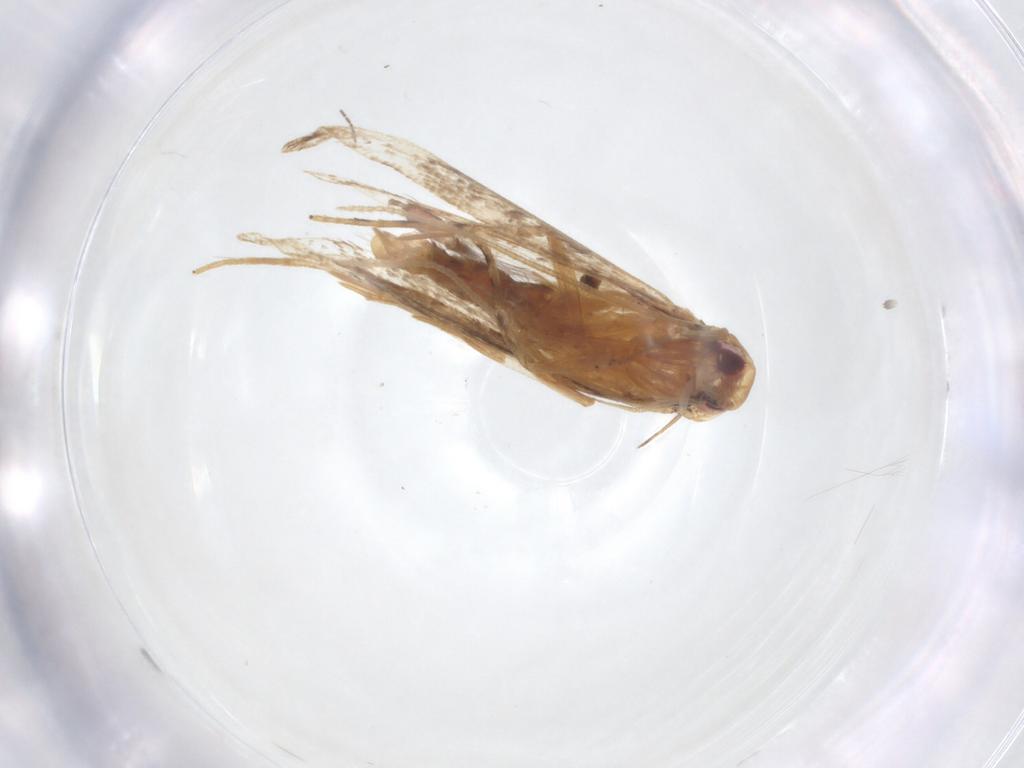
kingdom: Animalia
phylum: Arthropoda
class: Insecta
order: Lepidoptera
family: Cosmopterigidae
